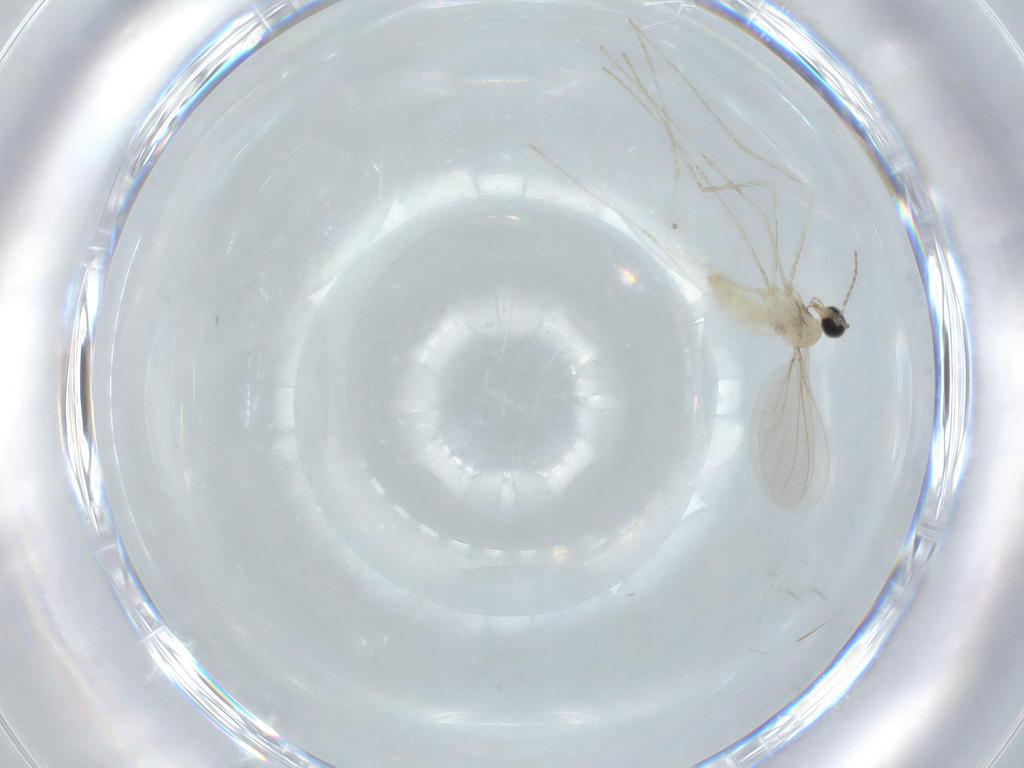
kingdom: Animalia
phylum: Arthropoda
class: Insecta
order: Diptera
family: Cecidomyiidae
